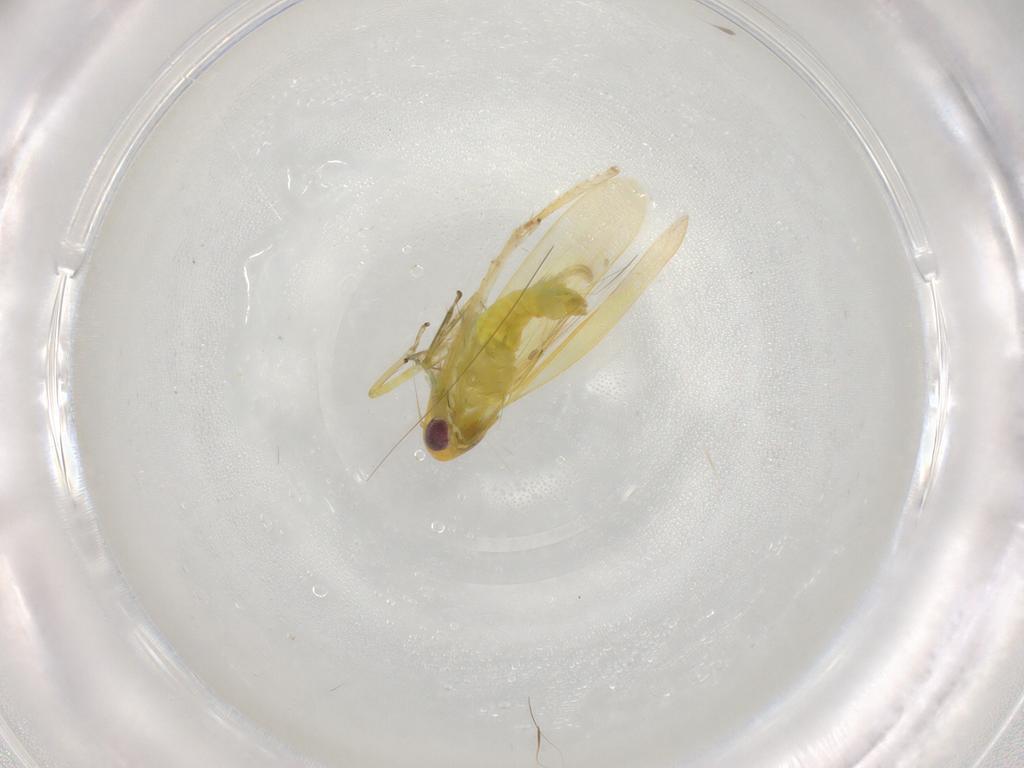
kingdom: Animalia
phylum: Arthropoda
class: Insecta
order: Hemiptera
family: Cicadellidae
